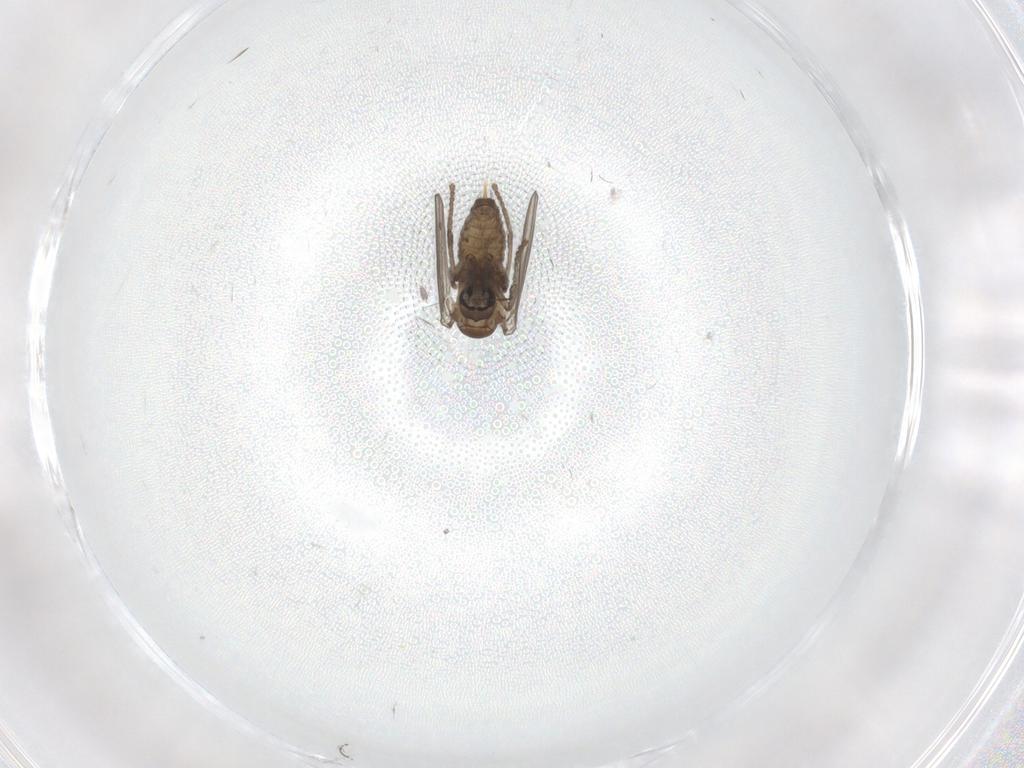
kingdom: Animalia
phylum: Arthropoda
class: Insecta
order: Diptera
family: Psychodidae
